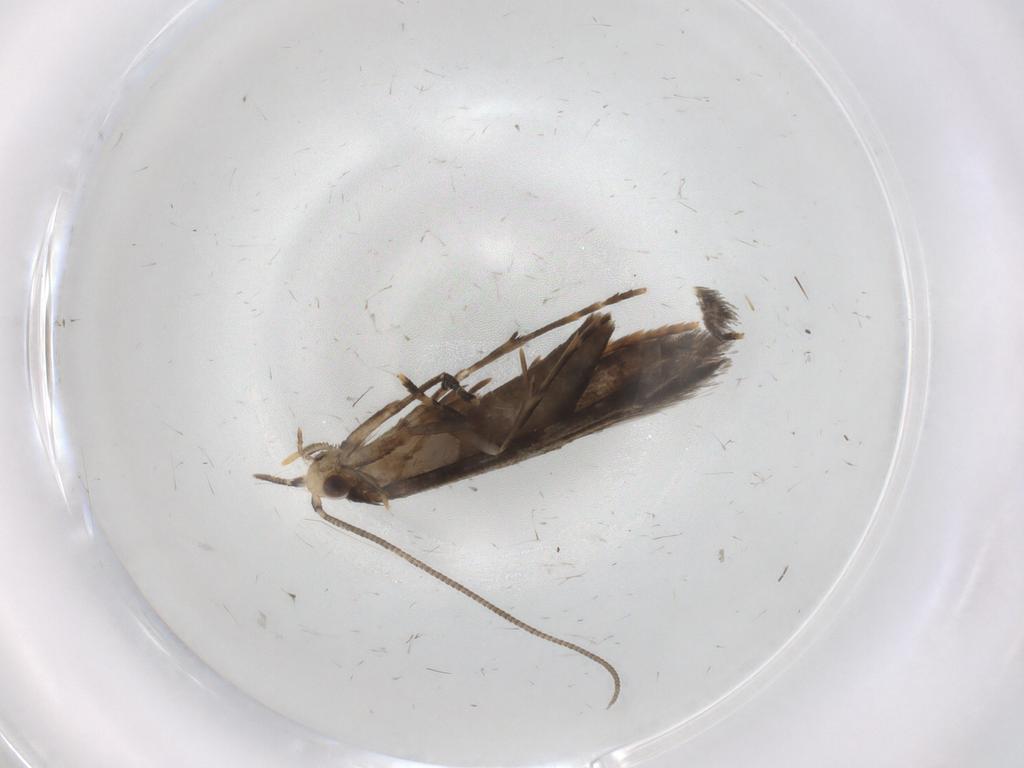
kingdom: Animalia
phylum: Arthropoda
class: Insecta
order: Lepidoptera
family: Tineidae
